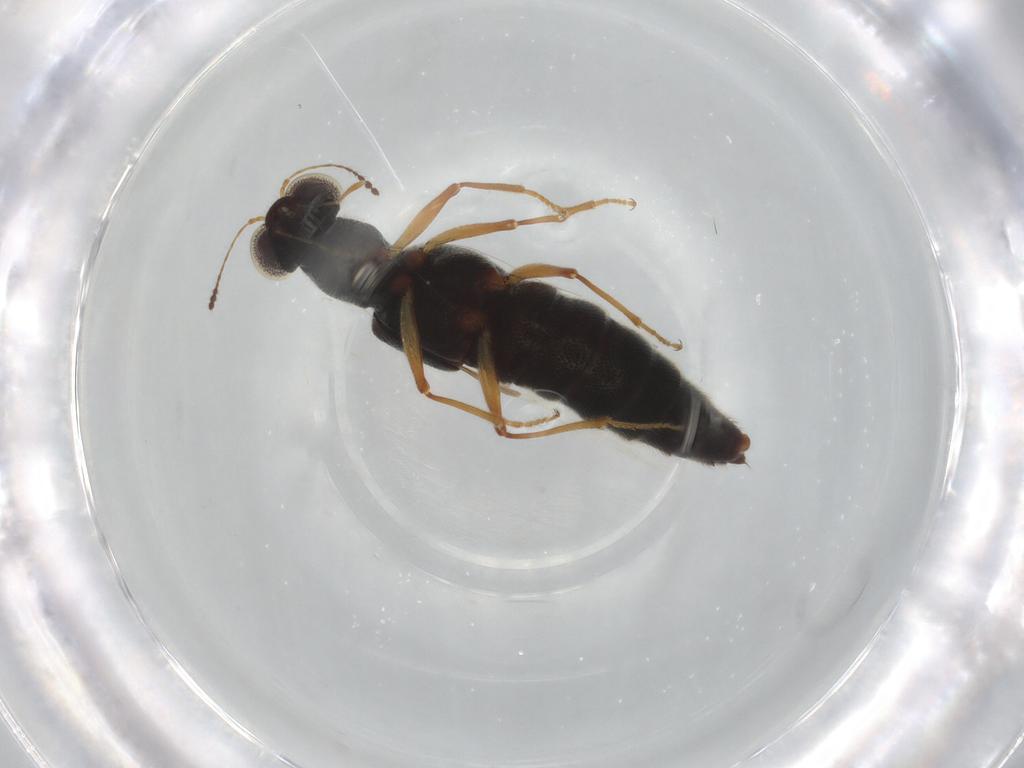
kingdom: Animalia
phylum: Arthropoda
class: Insecta
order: Coleoptera
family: Staphylinidae
